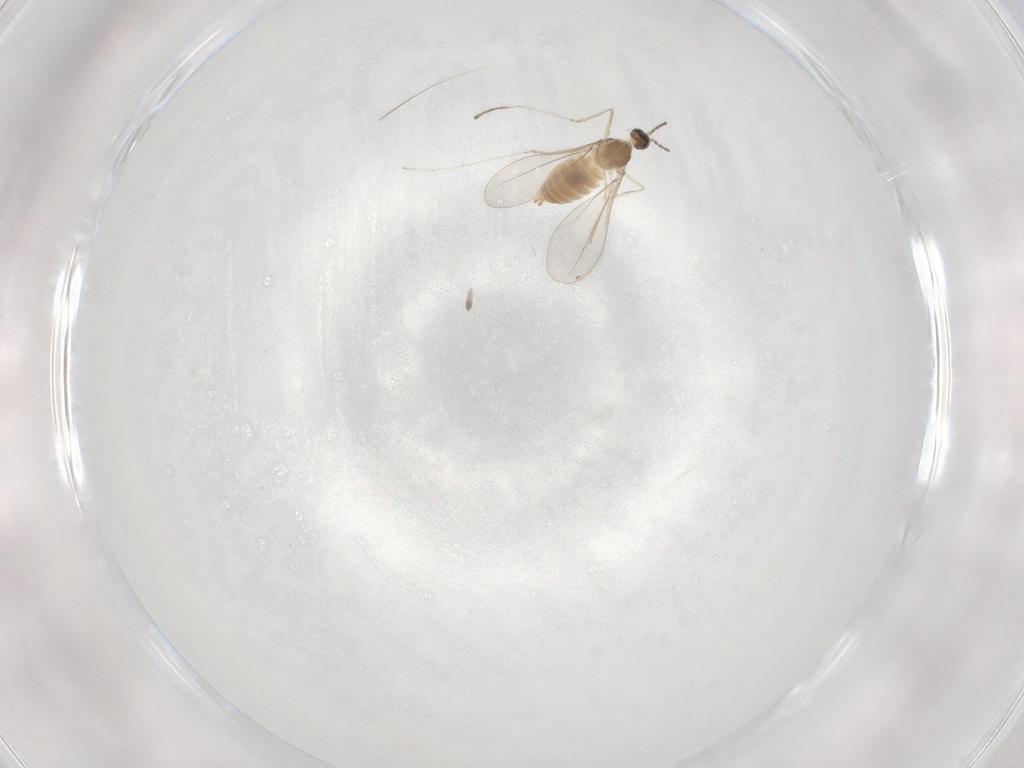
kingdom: Animalia
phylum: Arthropoda
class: Insecta
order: Diptera
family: Cecidomyiidae
